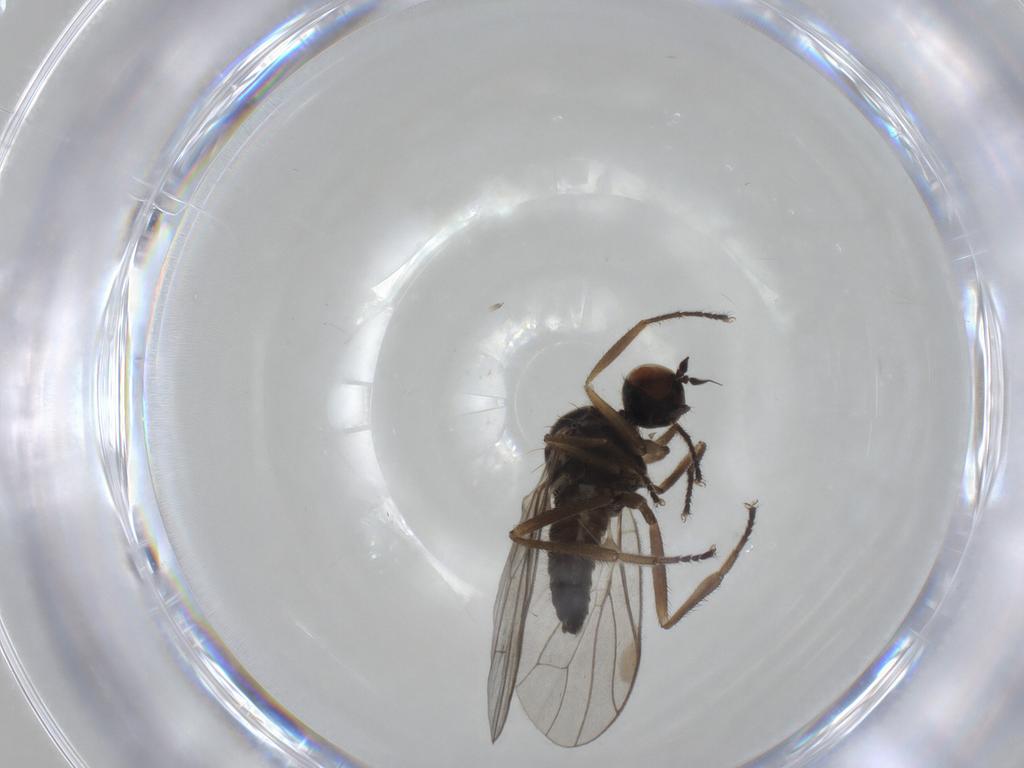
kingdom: Animalia
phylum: Arthropoda
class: Insecta
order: Diptera
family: Hybotidae
